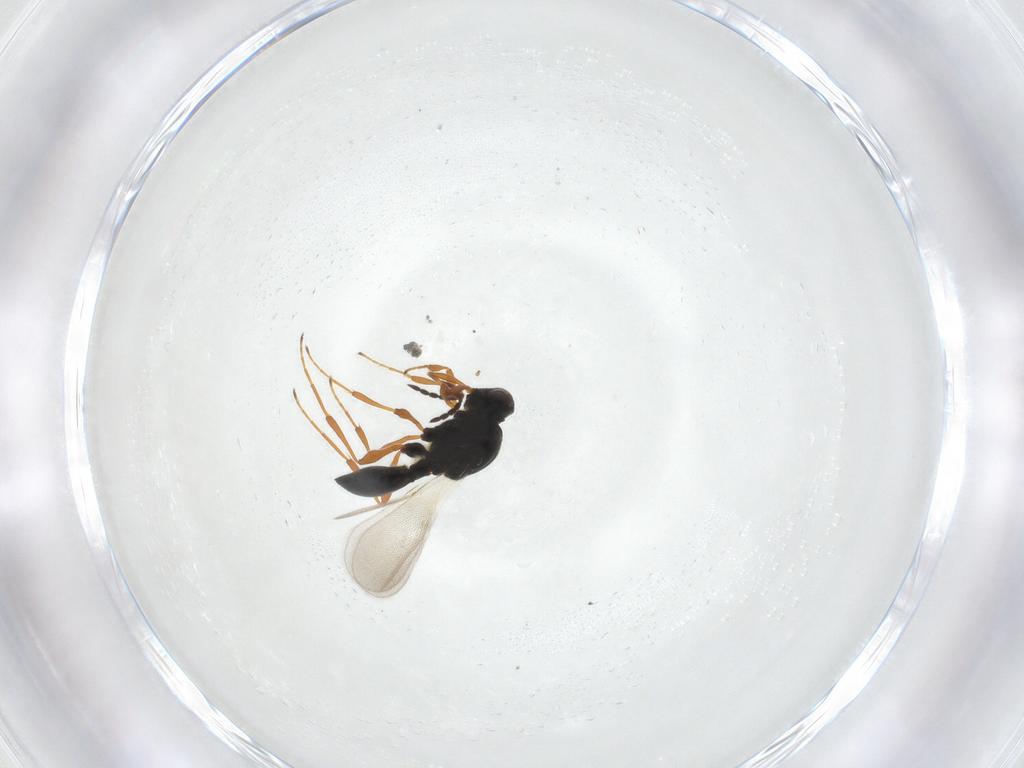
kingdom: Animalia
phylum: Arthropoda
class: Insecta
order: Hymenoptera
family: Platygastridae
